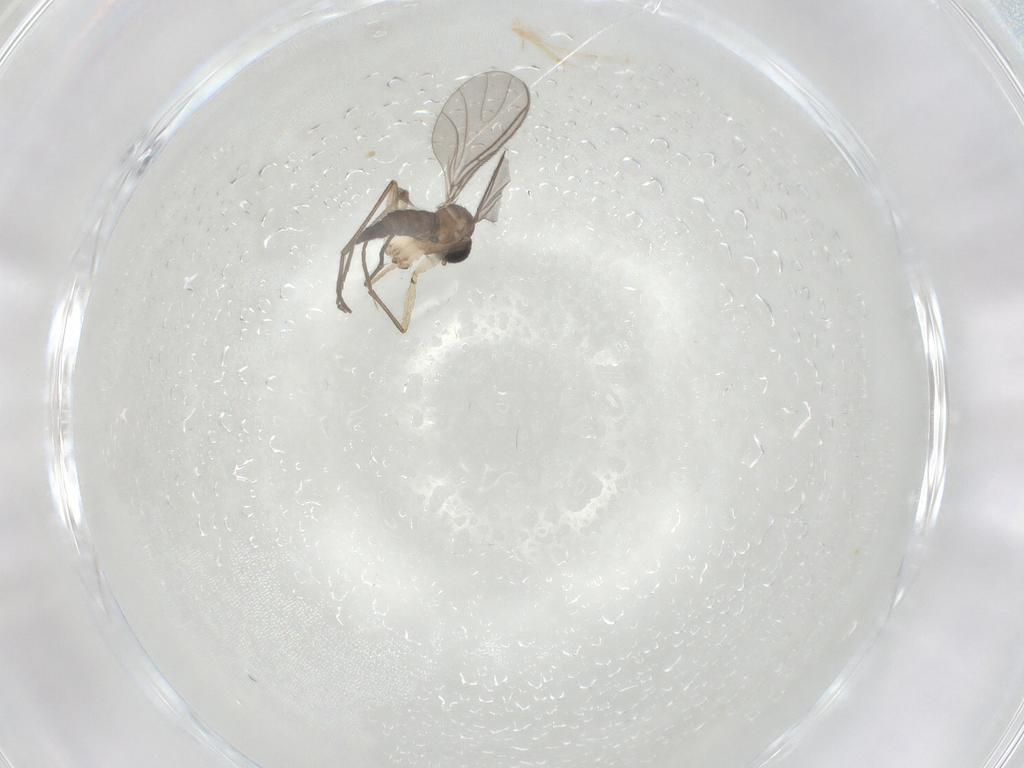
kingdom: Animalia
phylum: Arthropoda
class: Insecta
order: Diptera
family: Sciaridae
